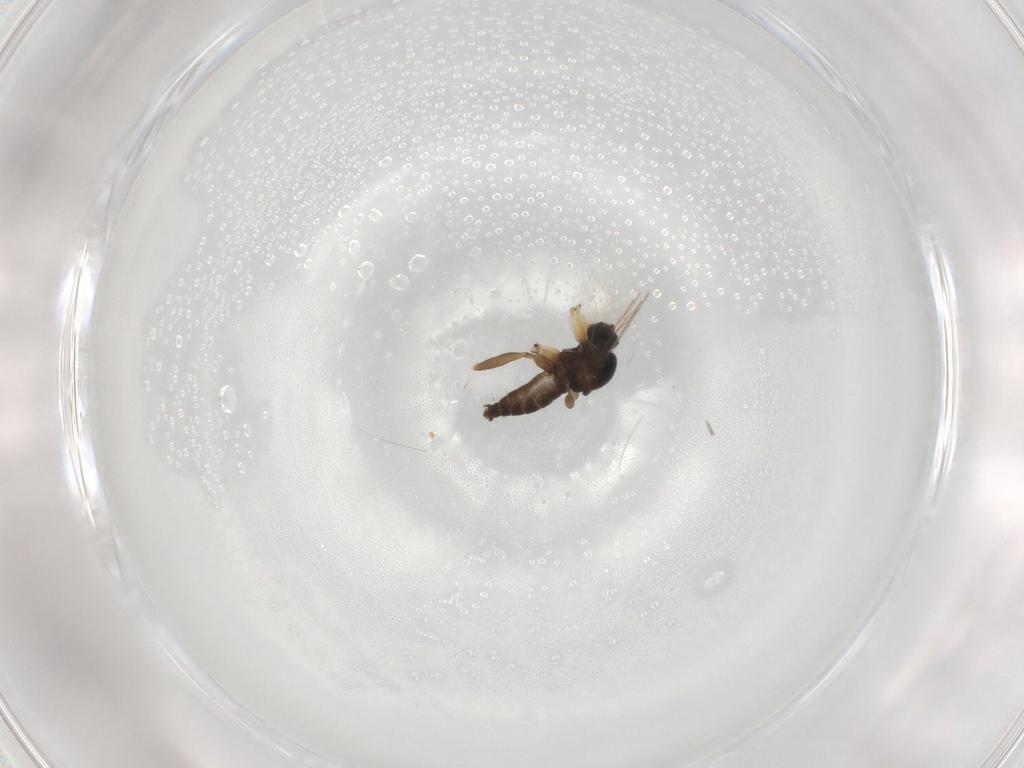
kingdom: Animalia
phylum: Arthropoda
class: Insecta
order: Diptera
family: Sciaridae
